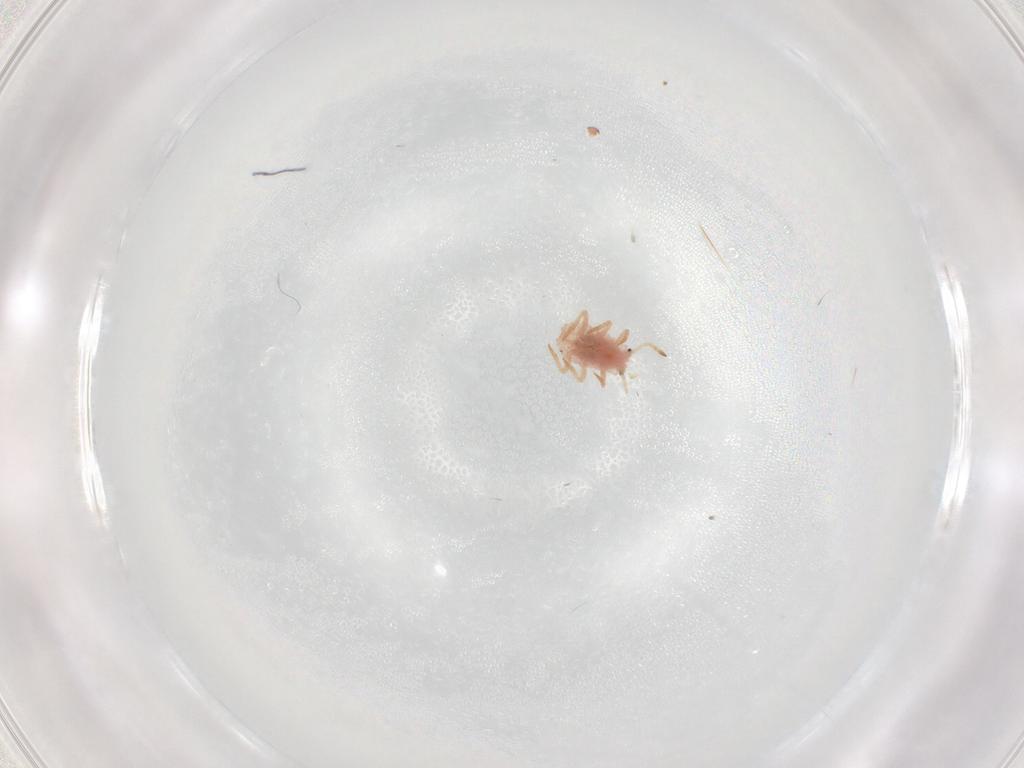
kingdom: Animalia
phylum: Arthropoda
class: Insecta
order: Hemiptera
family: Coccoidea_incertae_sedis
